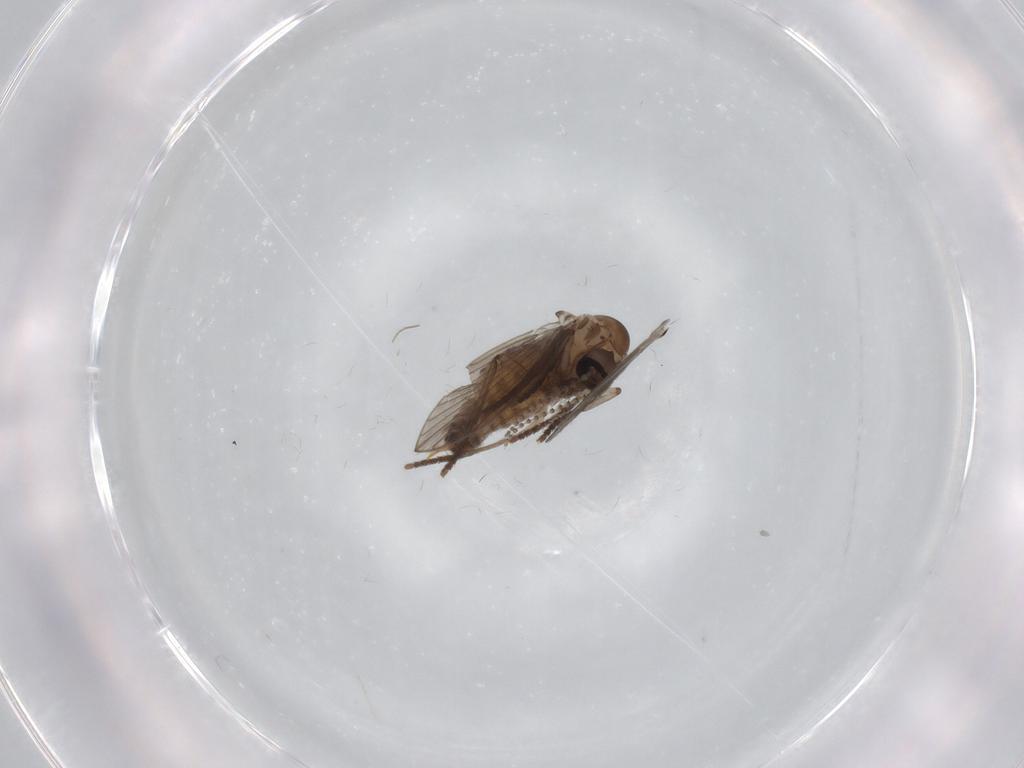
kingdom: Animalia
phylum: Arthropoda
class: Insecta
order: Diptera
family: Psychodidae
